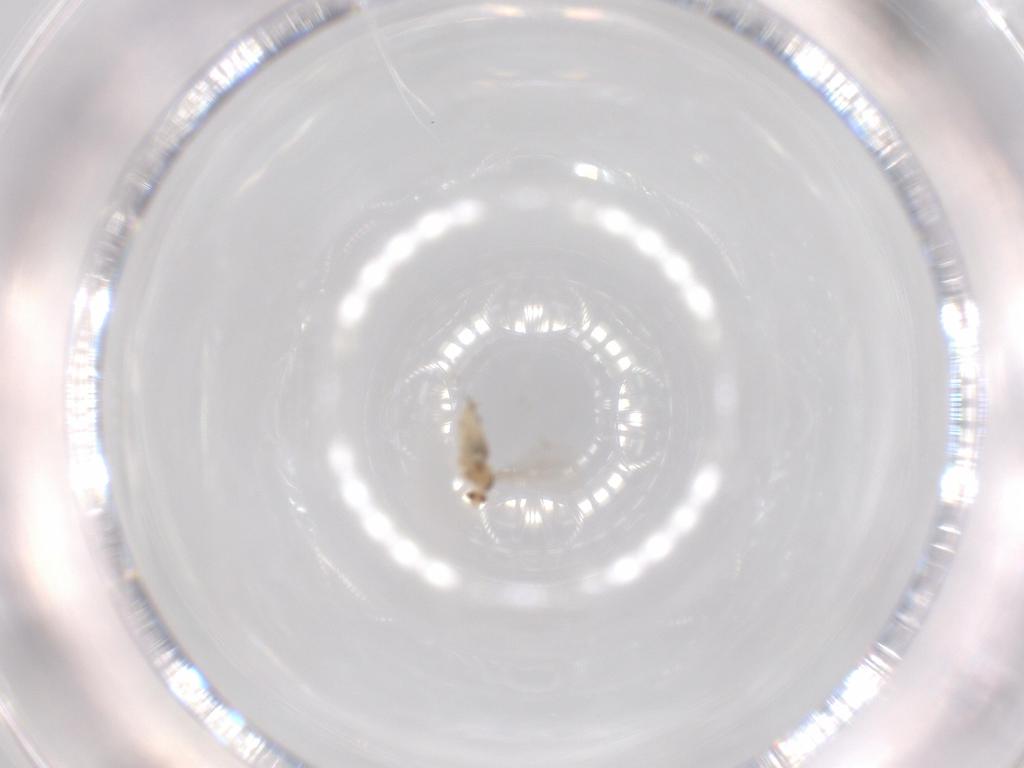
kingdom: Animalia
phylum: Arthropoda
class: Insecta
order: Diptera
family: Cecidomyiidae
